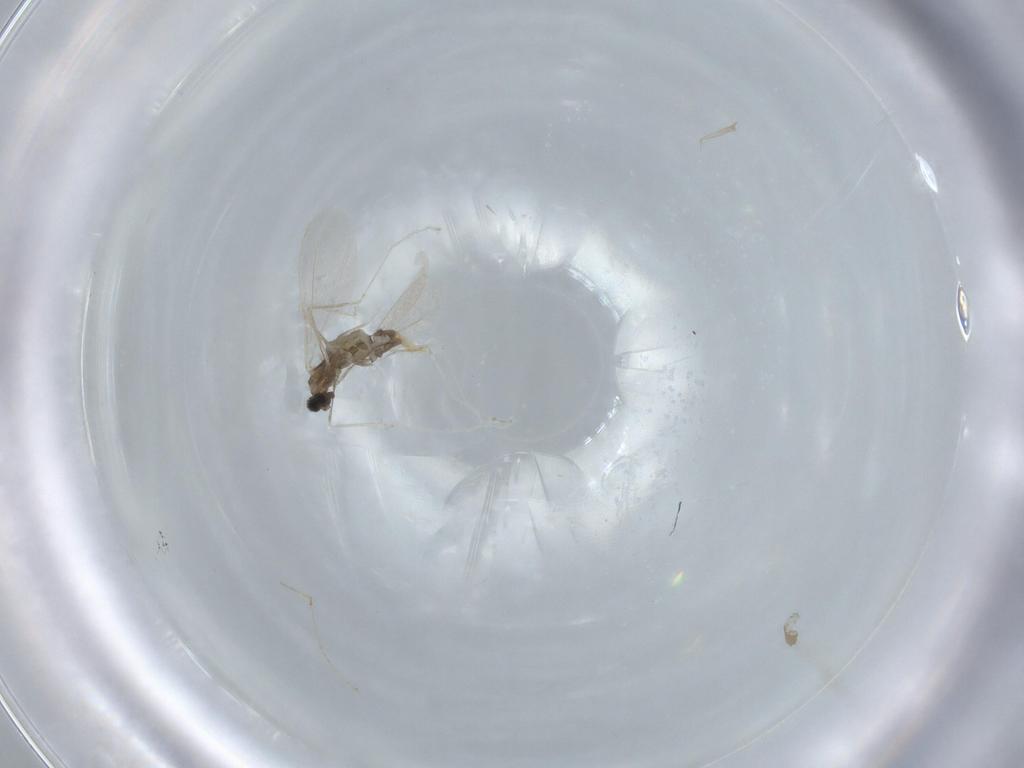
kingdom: Animalia
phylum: Arthropoda
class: Insecta
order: Diptera
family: Cecidomyiidae
